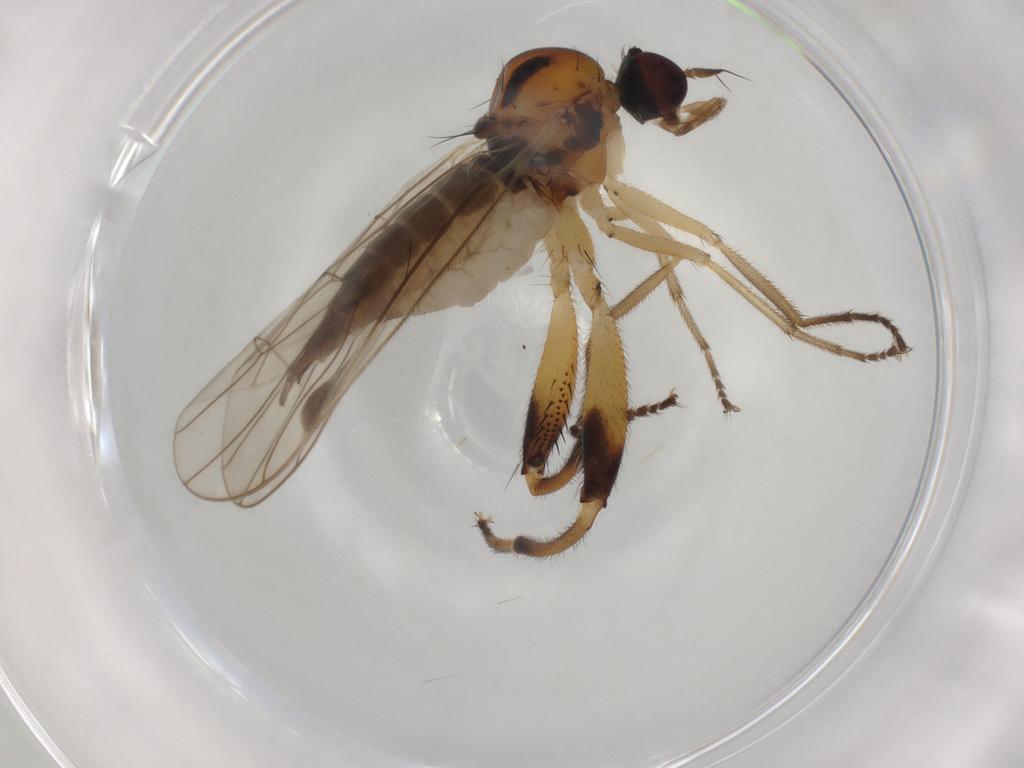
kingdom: Animalia
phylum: Arthropoda
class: Insecta
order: Diptera
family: Hybotidae
